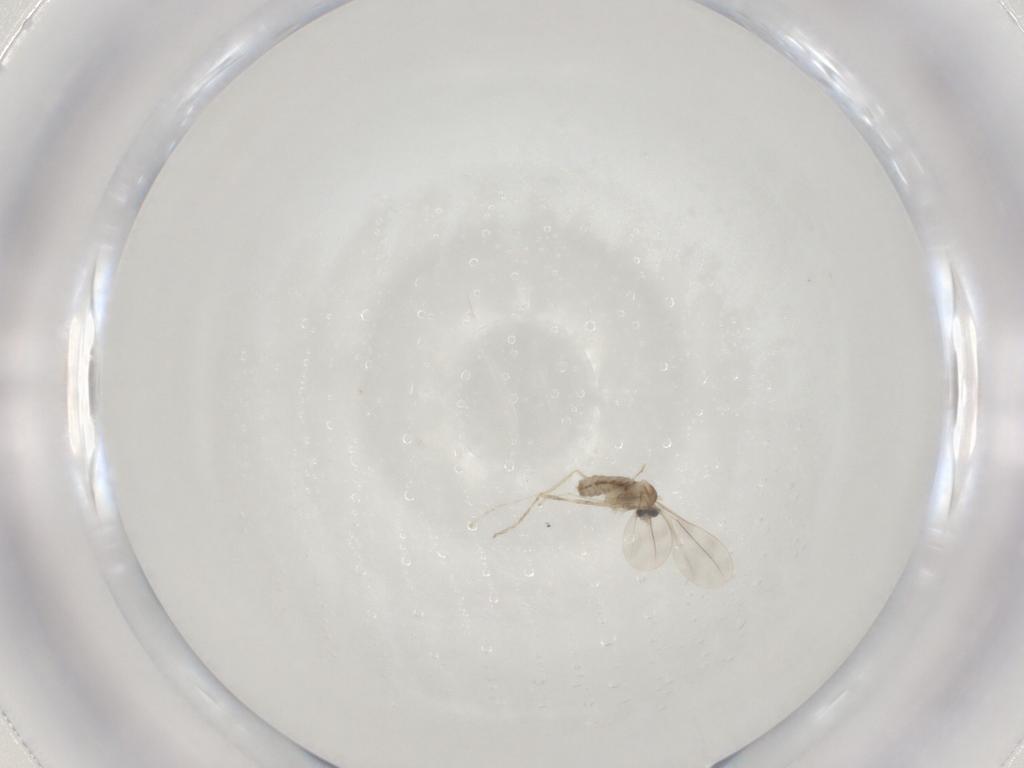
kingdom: Animalia
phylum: Arthropoda
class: Insecta
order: Diptera
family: Cecidomyiidae
